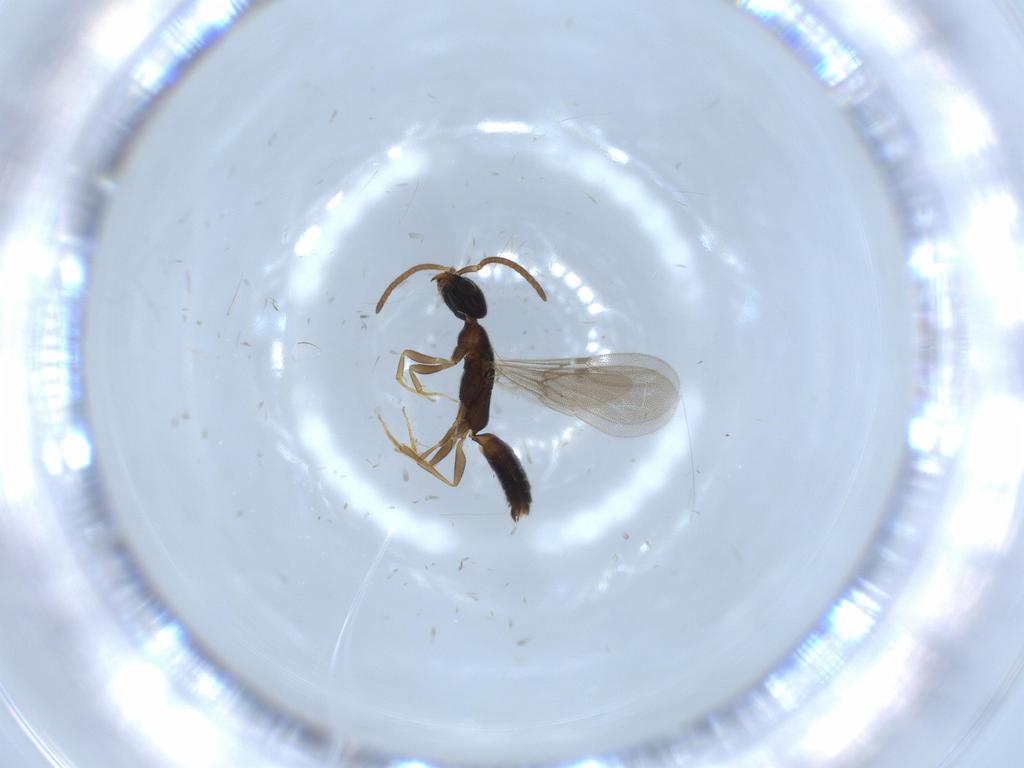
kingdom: Animalia
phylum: Arthropoda
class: Insecta
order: Hymenoptera
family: Bethylidae
